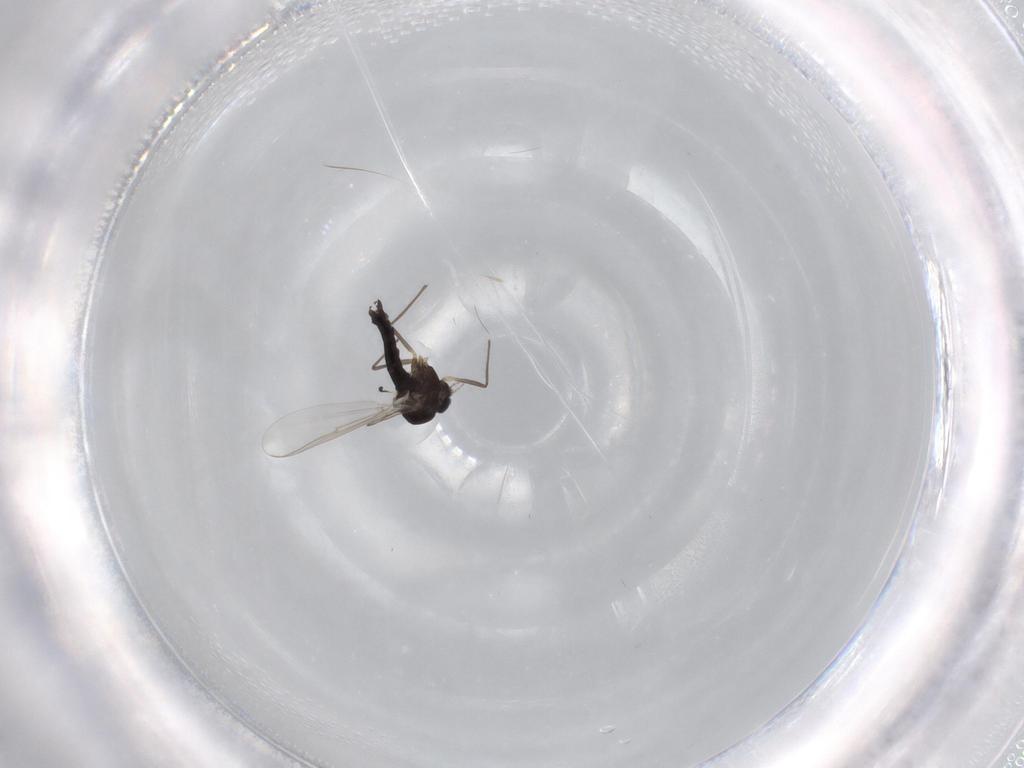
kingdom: Animalia
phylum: Arthropoda
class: Insecta
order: Diptera
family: Chironomidae
